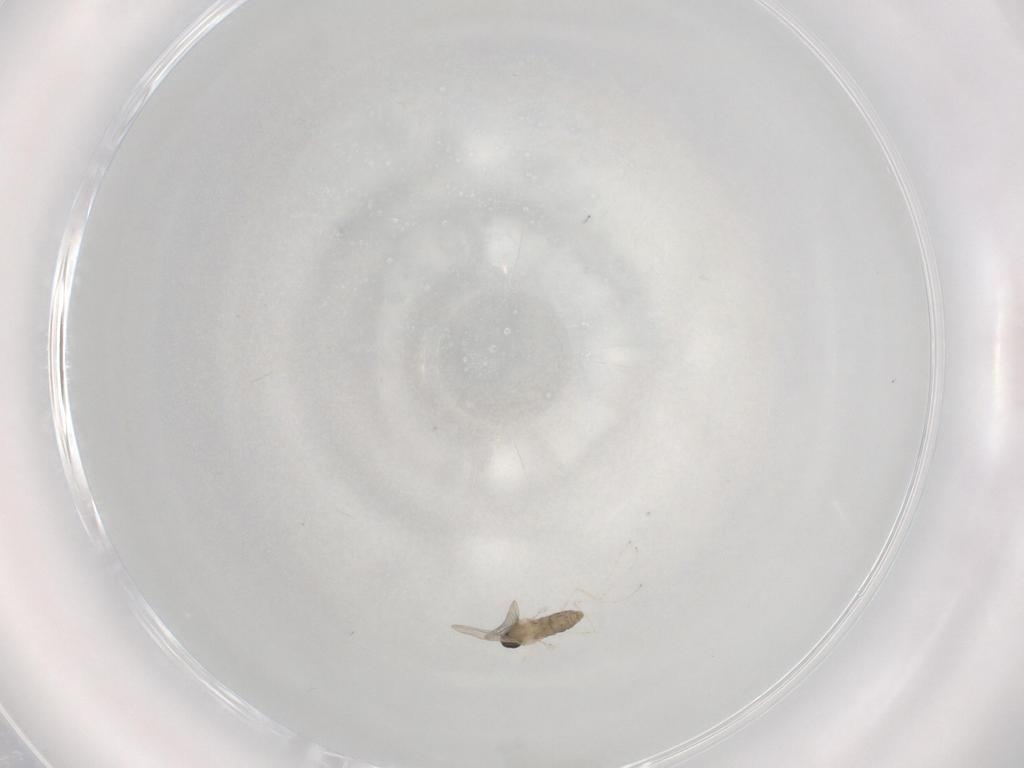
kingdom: Animalia
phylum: Arthropoda
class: Insecta
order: Diptera
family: Cecidomyiidae
